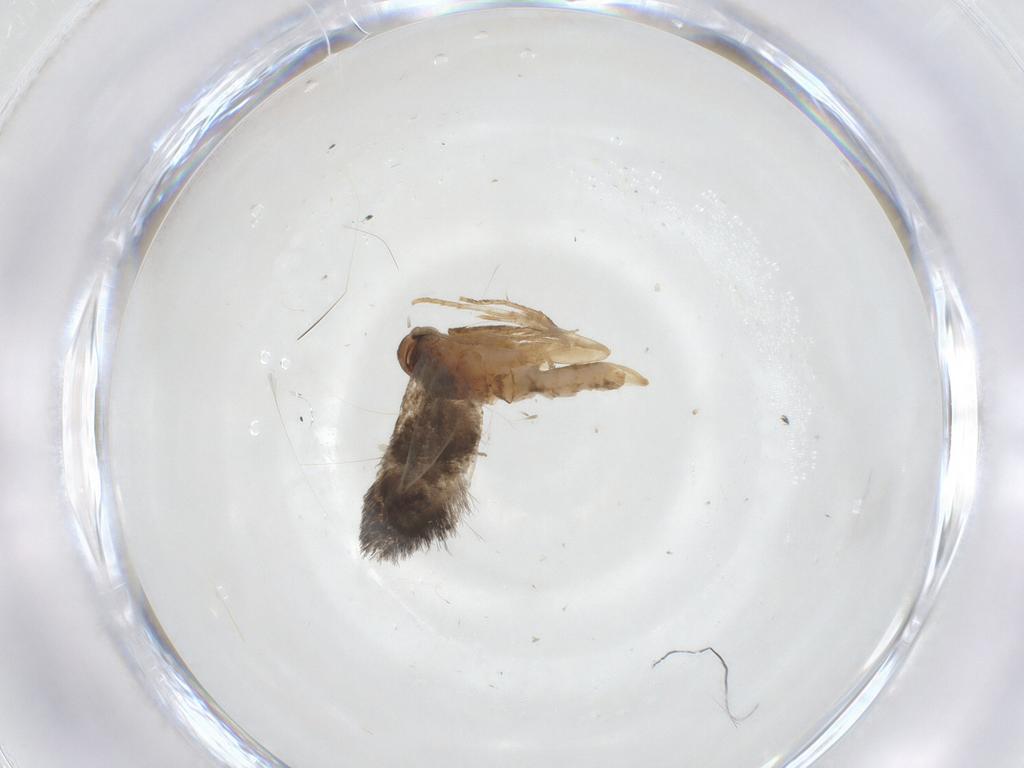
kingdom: Animalia
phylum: Arthropoda
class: Insecta
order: Lepidoptera
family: Elachistidae
